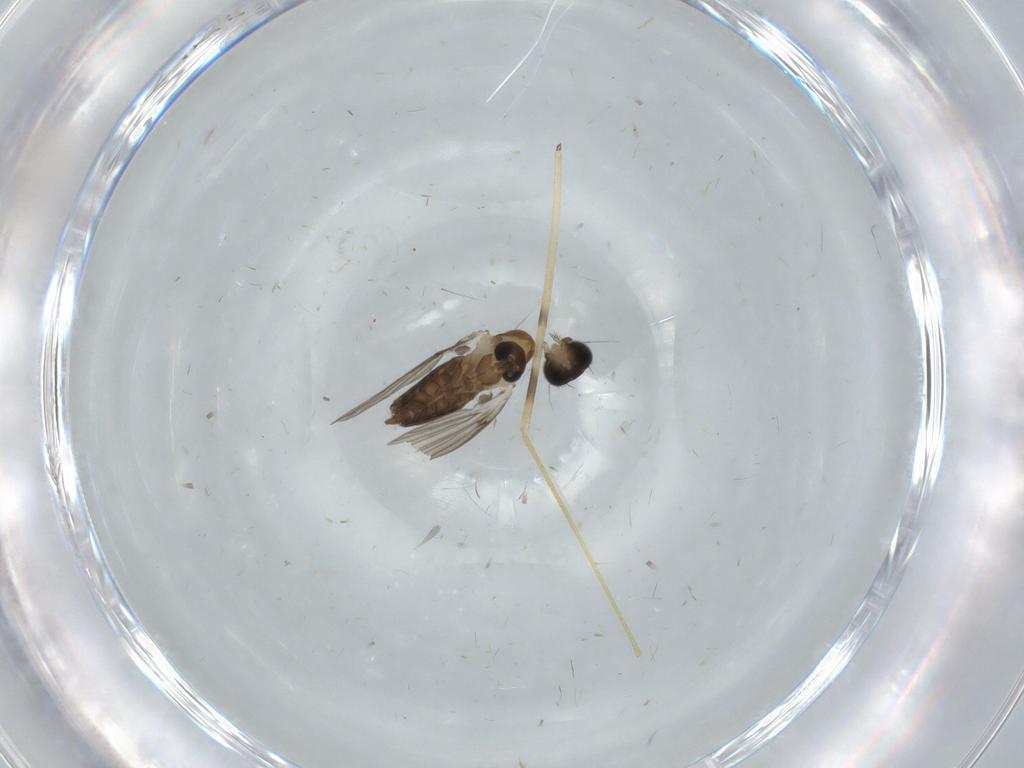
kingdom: Animalia
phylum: Arthropoda
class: Insecta
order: Diptera
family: Phoridae
